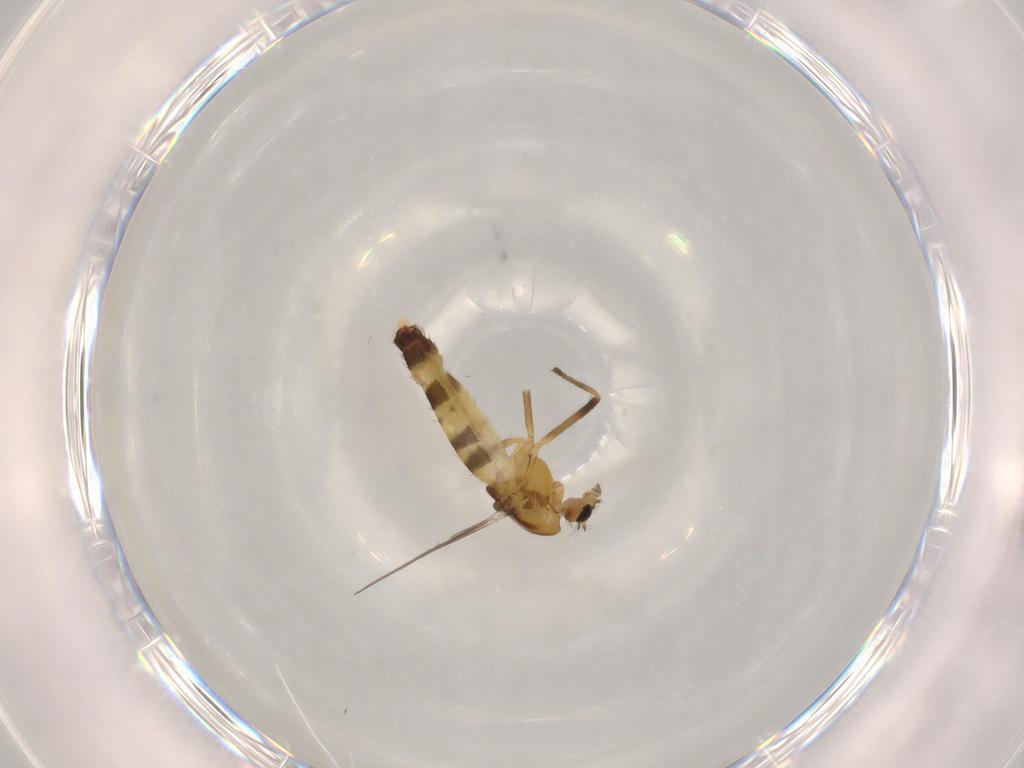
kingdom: Animalia
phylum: Arthropoda
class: Insecta
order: Diptera
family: Chironomidae
